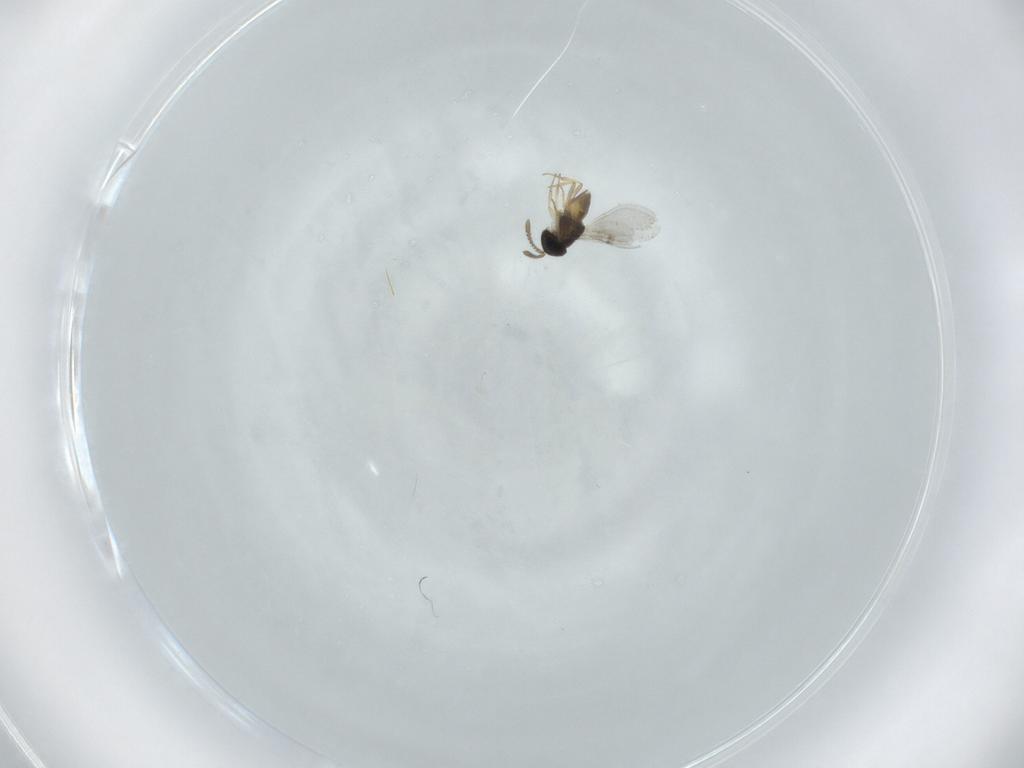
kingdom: Animalia
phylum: Arthropoda
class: Insecta
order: Hymenoptera
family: Encyrtidae
